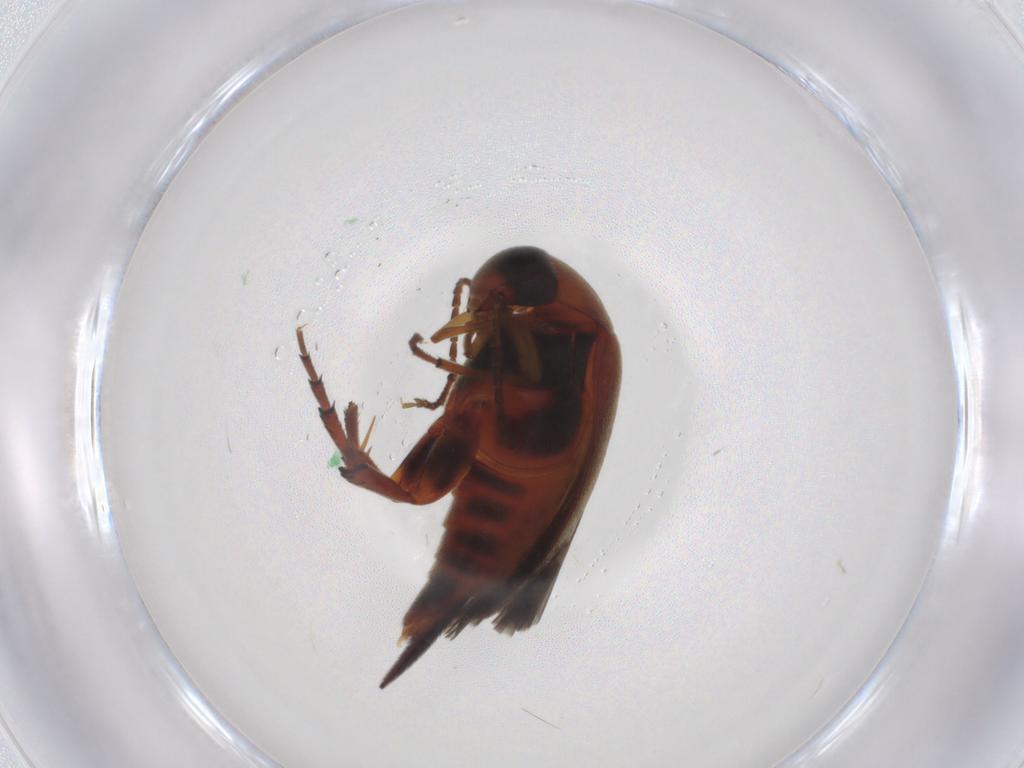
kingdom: Animalia
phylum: Arthropoda
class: Insecta
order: Coleoptera
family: Mordellidae
